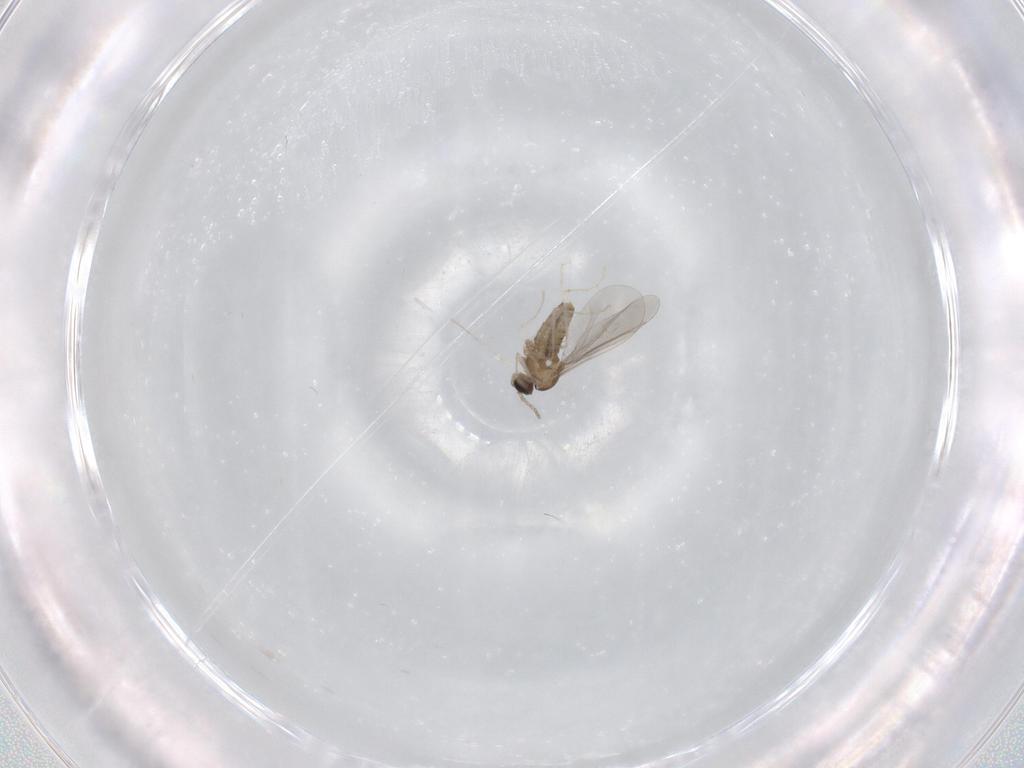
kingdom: Animalia
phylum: Arthropoda
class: Insecta
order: Diptera
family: Cecidomyiidae
